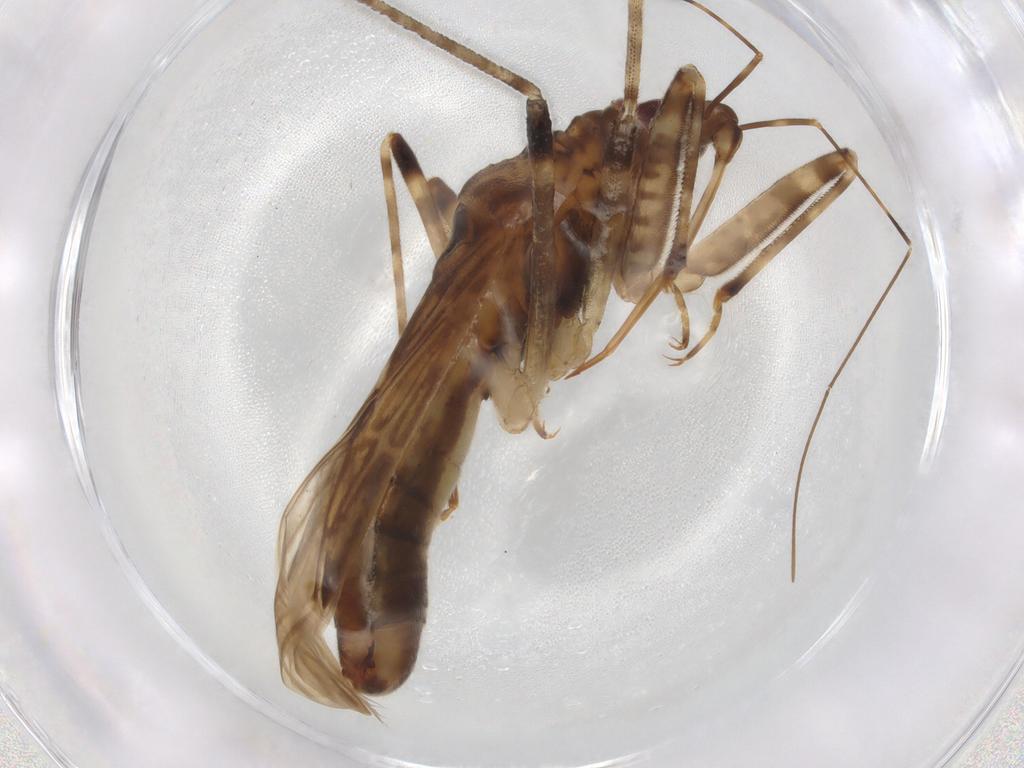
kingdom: Animalia
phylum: Arthropoda
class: Insecta
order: Hemiptera
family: Nabidae
